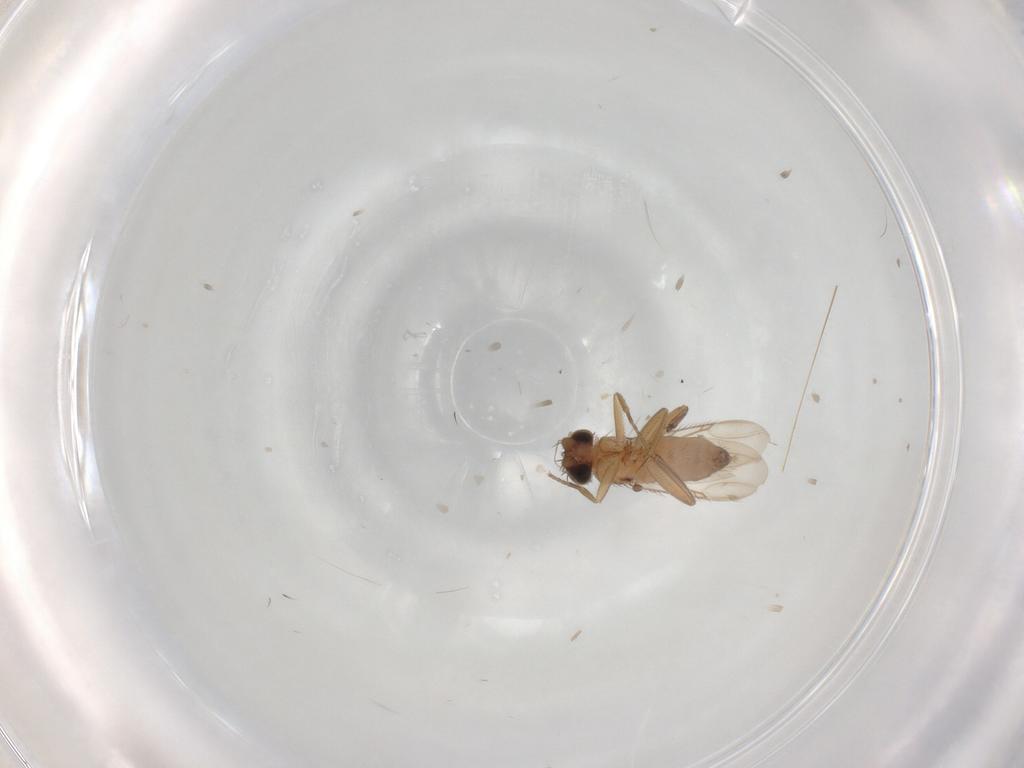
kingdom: Animalia
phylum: Arthropoda
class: Insecta
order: Diptera
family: Phoridae
